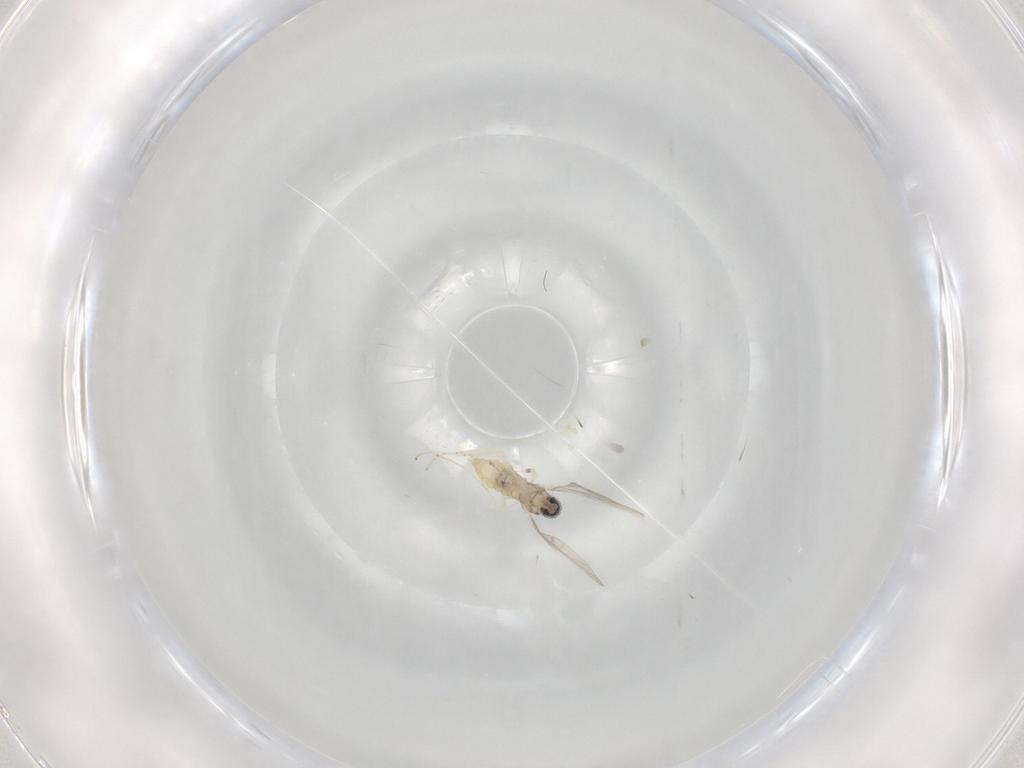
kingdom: Animalia
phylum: Arthropoda
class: Insecta
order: Diptera
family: Cecidomyiidae
